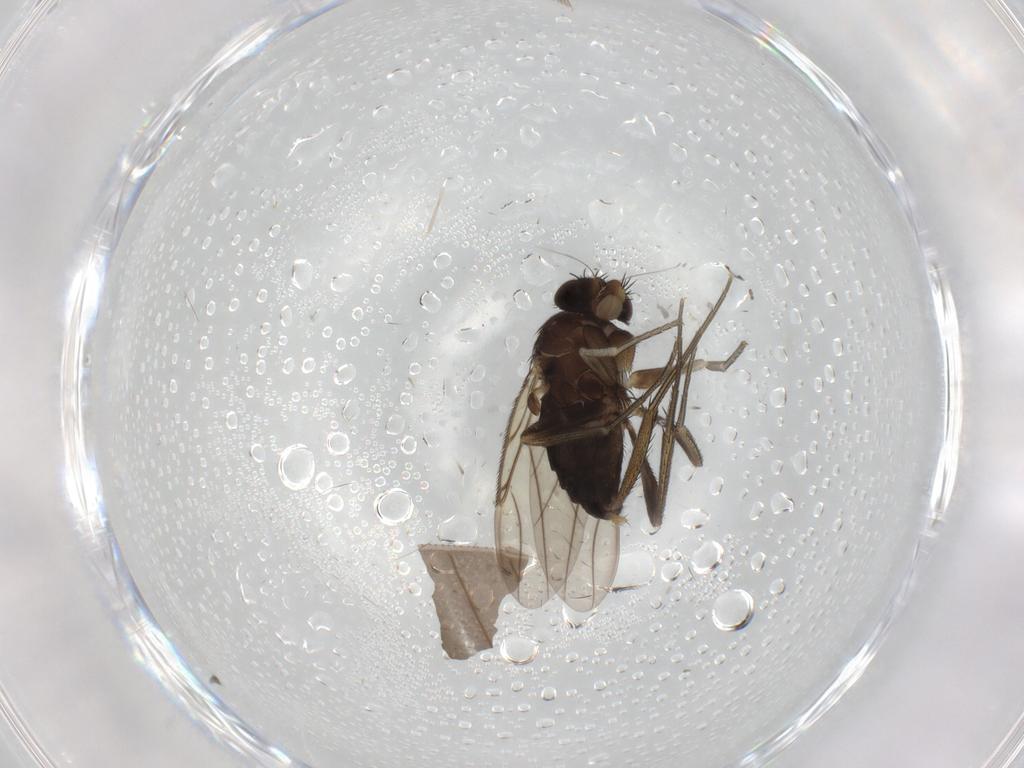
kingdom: Animalia
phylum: Arthropoda
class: Insecta
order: Diptera
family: Phoridae
